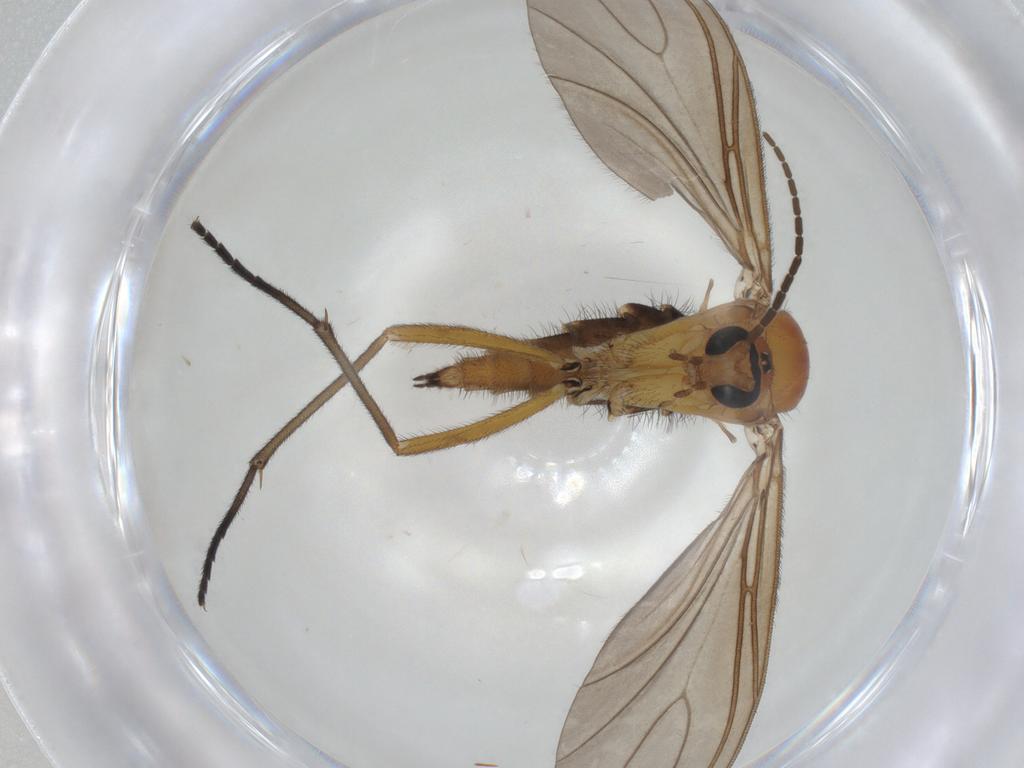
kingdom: Animalia
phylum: Arthropoda
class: Insecta
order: Diptera
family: Sciaridae
